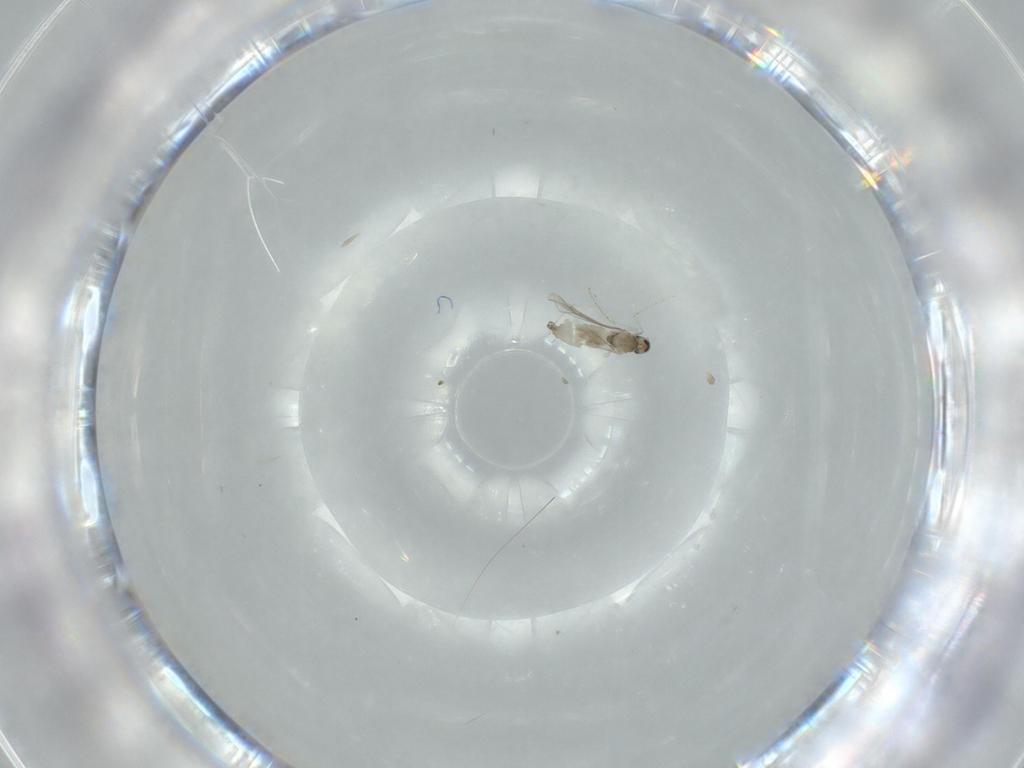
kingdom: Animalia
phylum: Arthropoda
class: Insecta
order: Diptera
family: Cecidomyiidae
